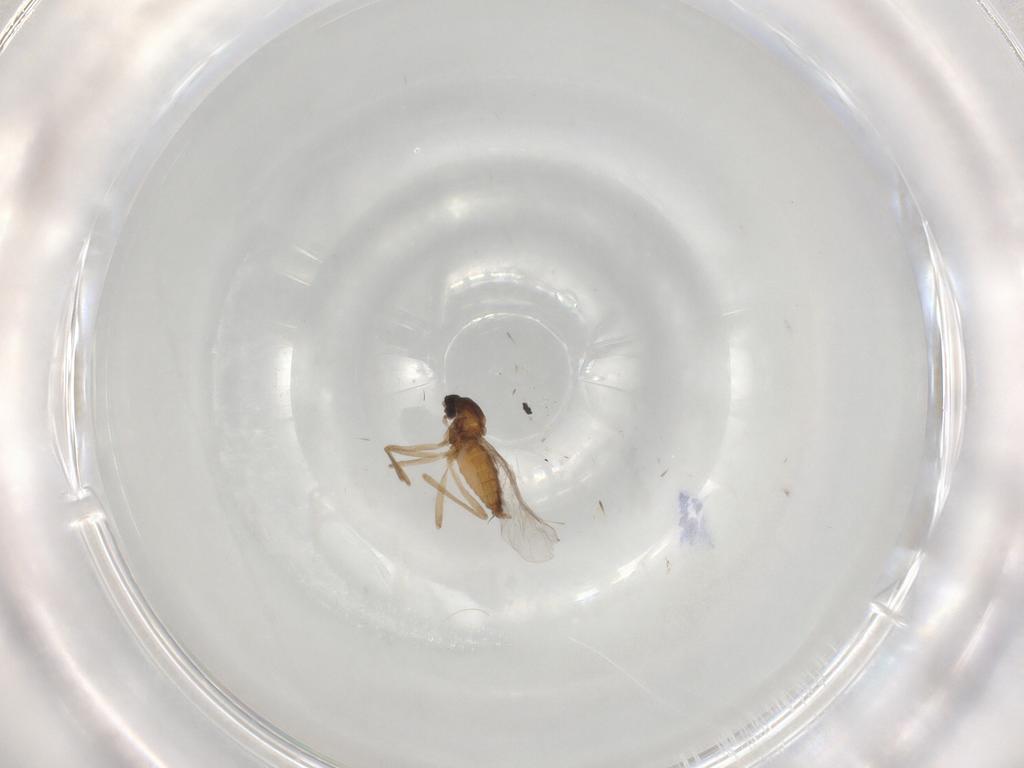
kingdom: Animalia
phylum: Arthropoda
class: Insecta
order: Diptera
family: Cecidomyiidae
